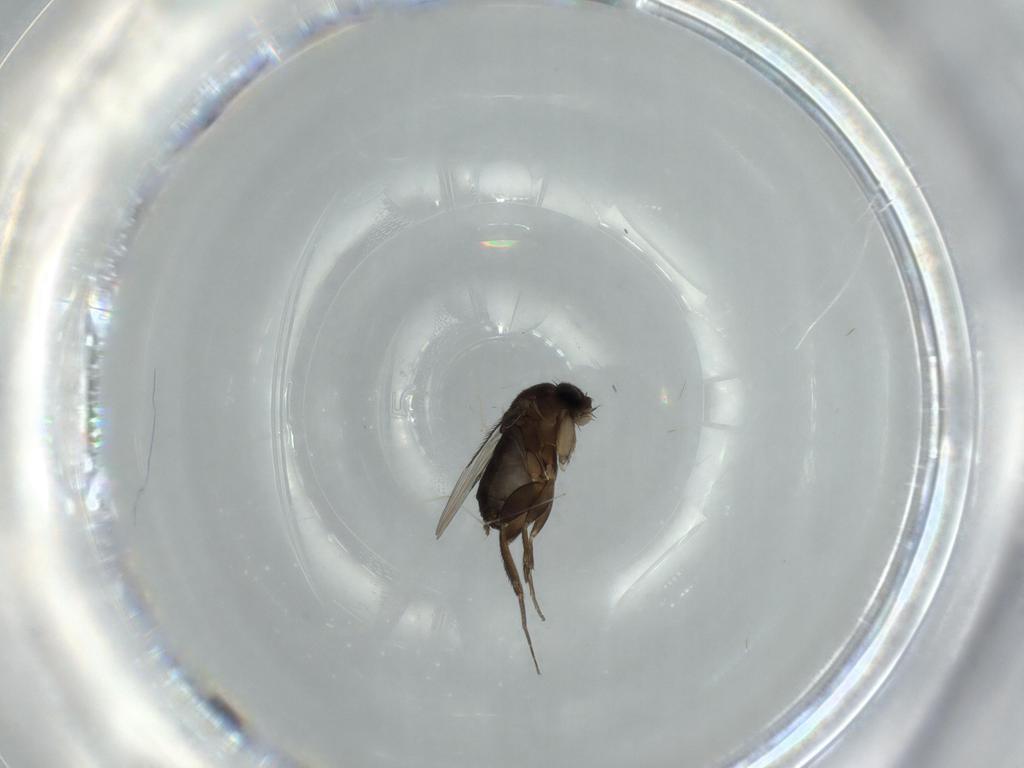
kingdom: Animalia
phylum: Arthropoda
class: Insecta
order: Diptera
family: Phoridae
